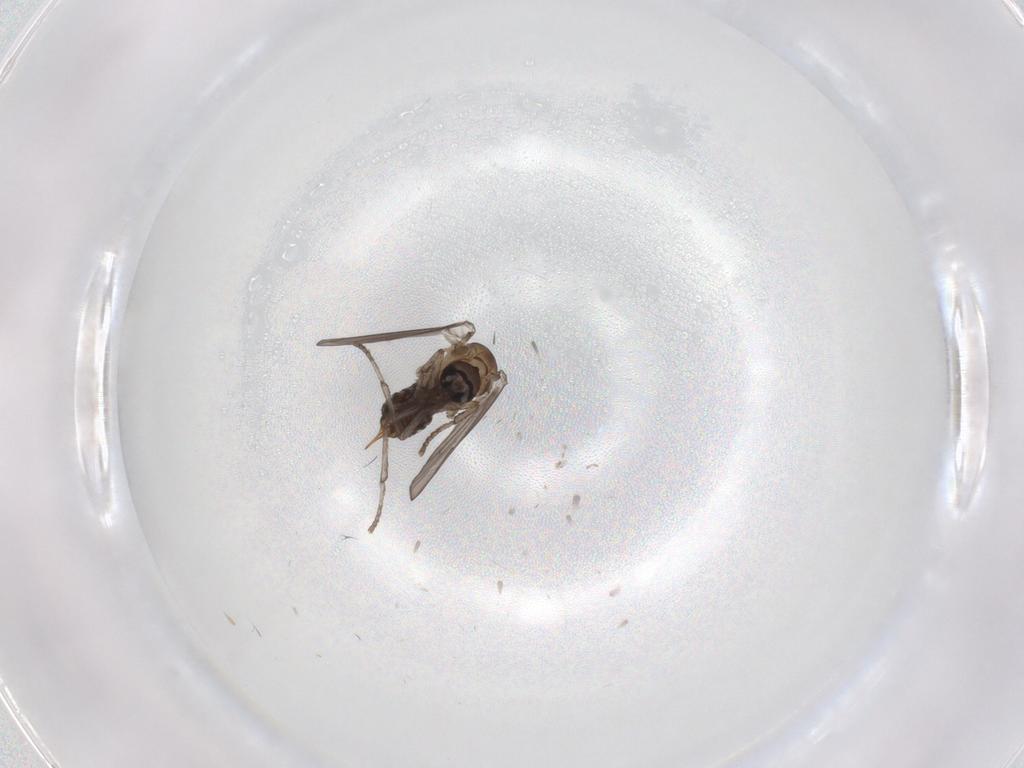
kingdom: Animalia
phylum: Arthropoda
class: Insecta
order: Diptera
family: Psychodidae
